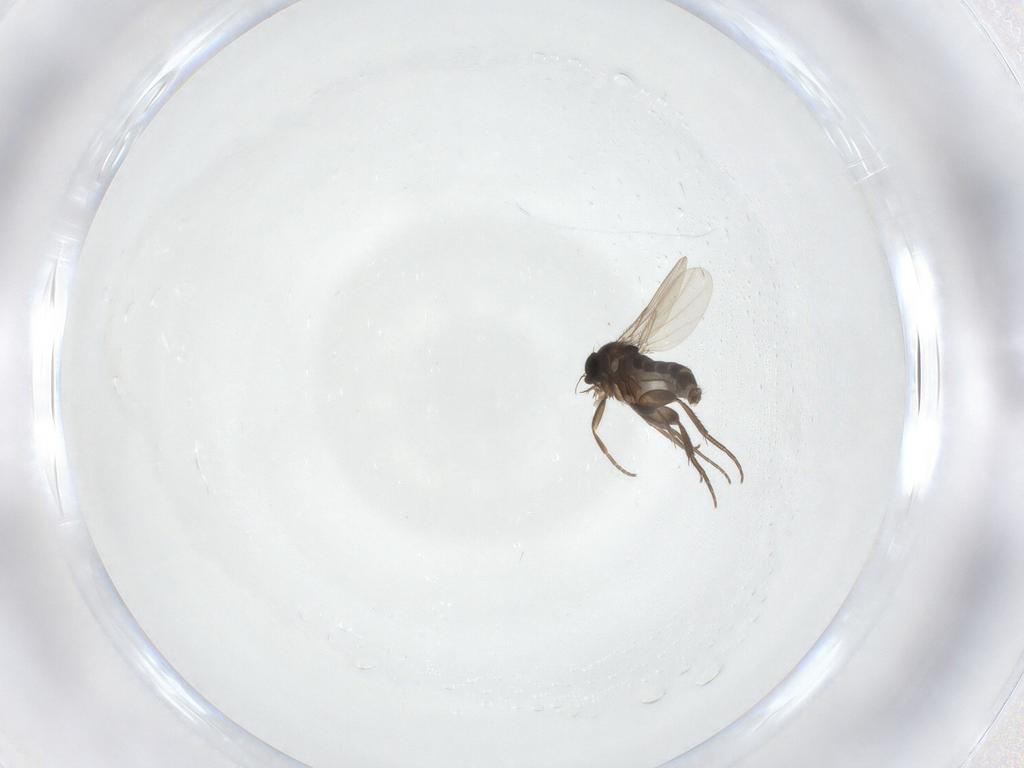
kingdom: Animalia
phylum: Arthropoda
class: Insecta
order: Diptera
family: Phoridae
